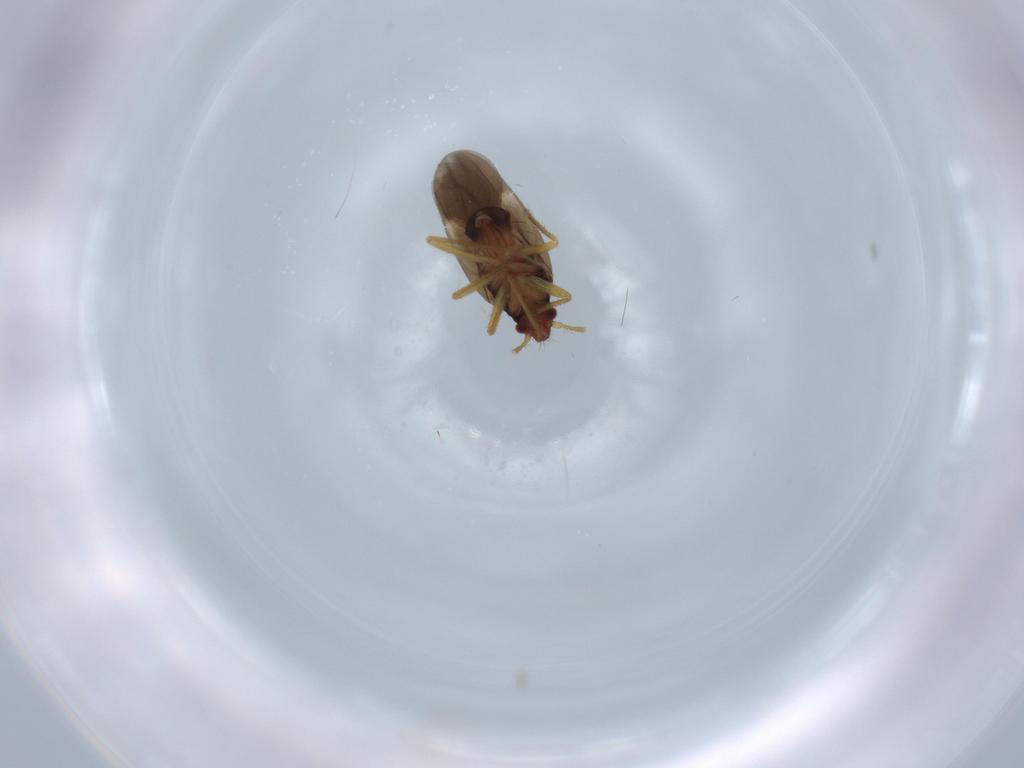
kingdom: Animalia
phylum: Arthropoda
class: Insecta
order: Hemiptera
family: Ceratocombidae
